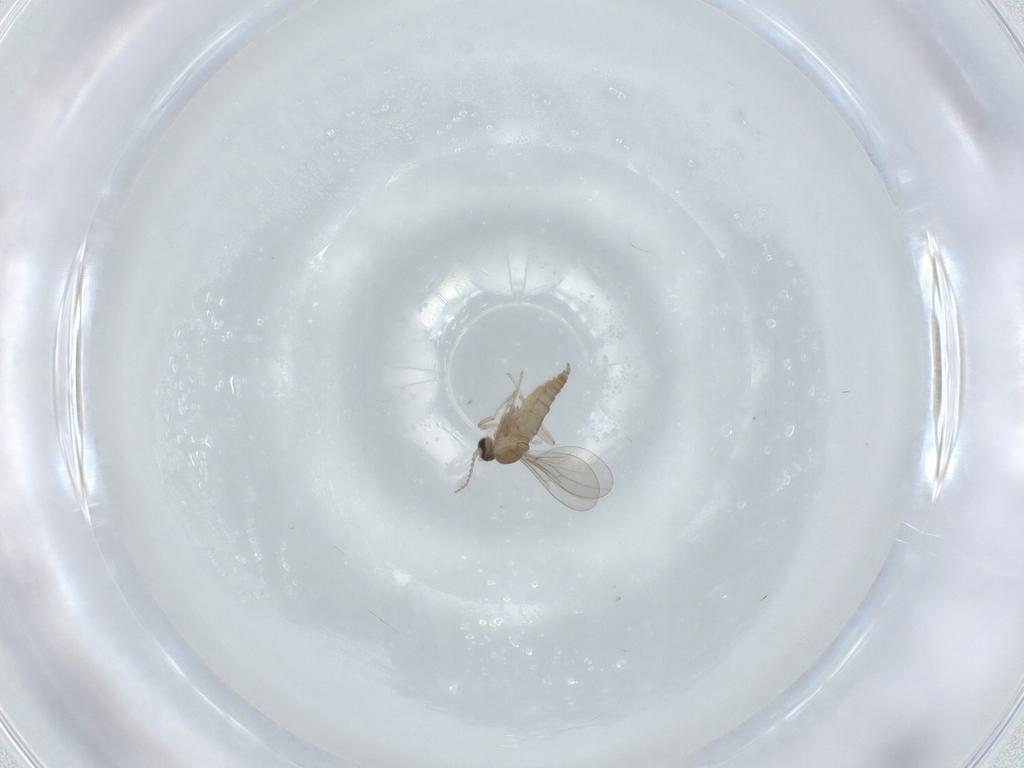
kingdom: Animalia
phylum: Arthropoda
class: Insecta
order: Diptera
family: Cecidomyiidae
